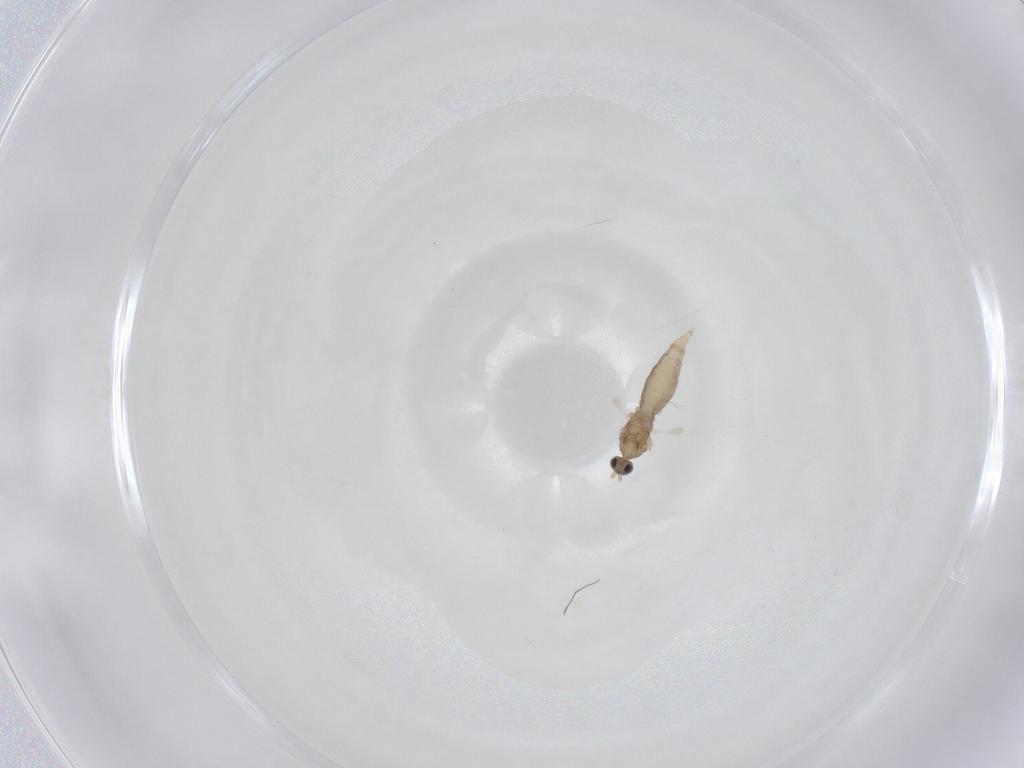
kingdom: Animalia
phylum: Arthropoda
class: Insecta
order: Diptera
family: Cecidomyiidae
